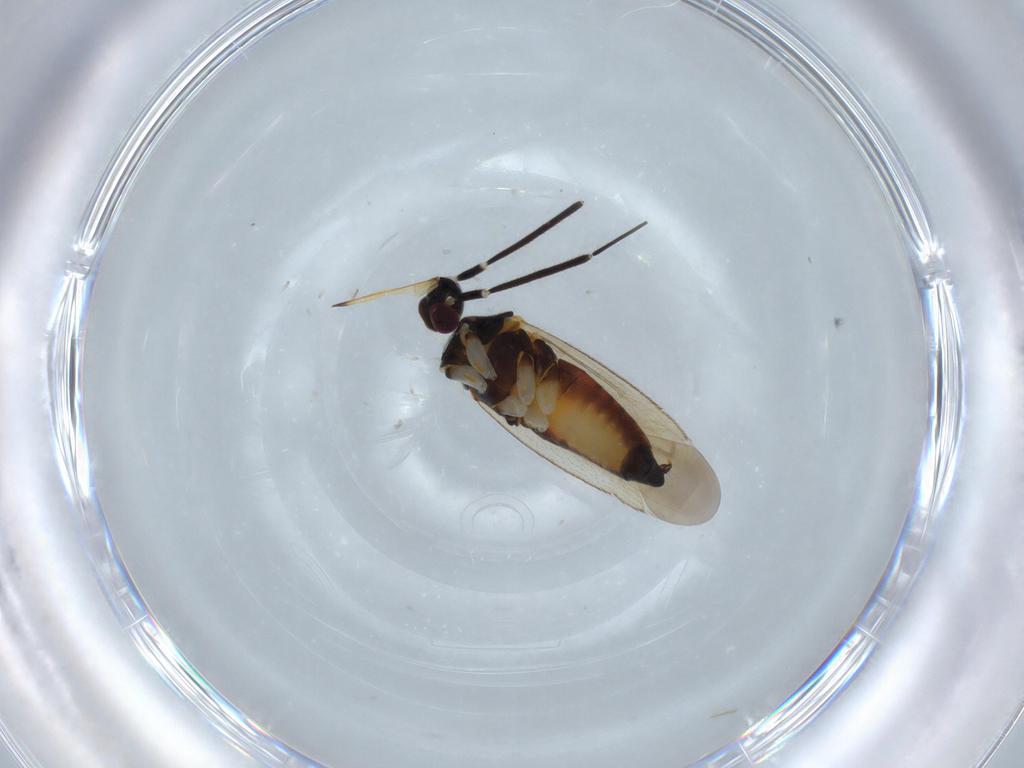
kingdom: Animalia
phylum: Arthropoda
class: Insecta
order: Hemiptera
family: Miridae
